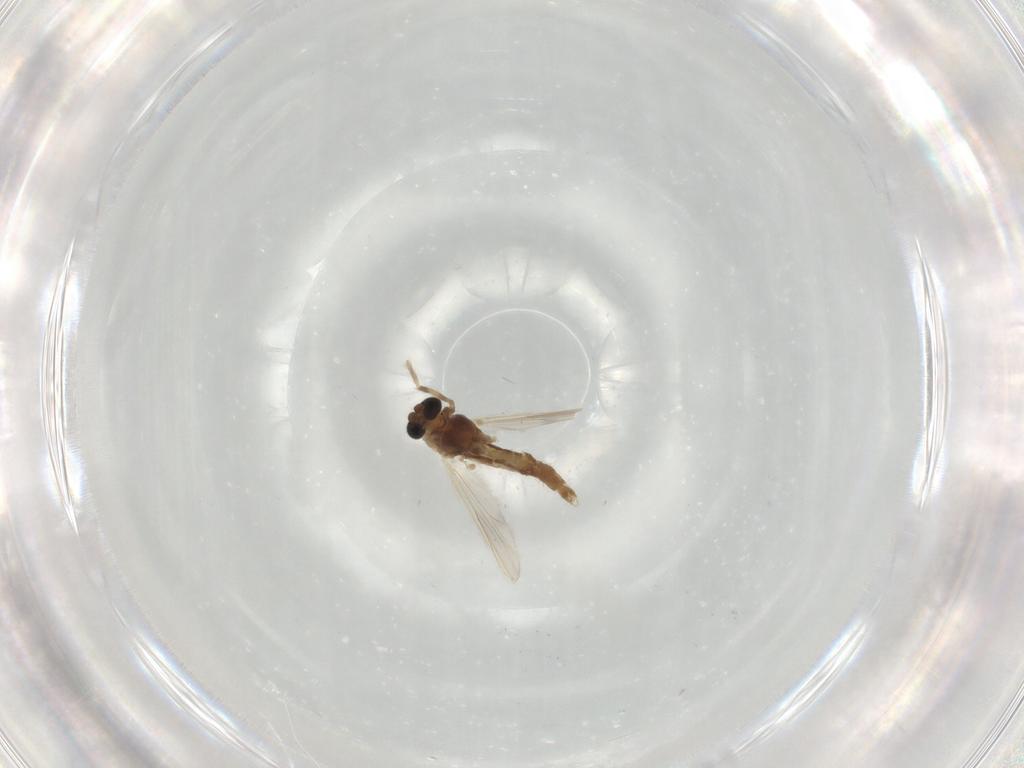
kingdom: Animalia
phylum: Arthropoda
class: Insecta
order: Diptera
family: Chironomidae
